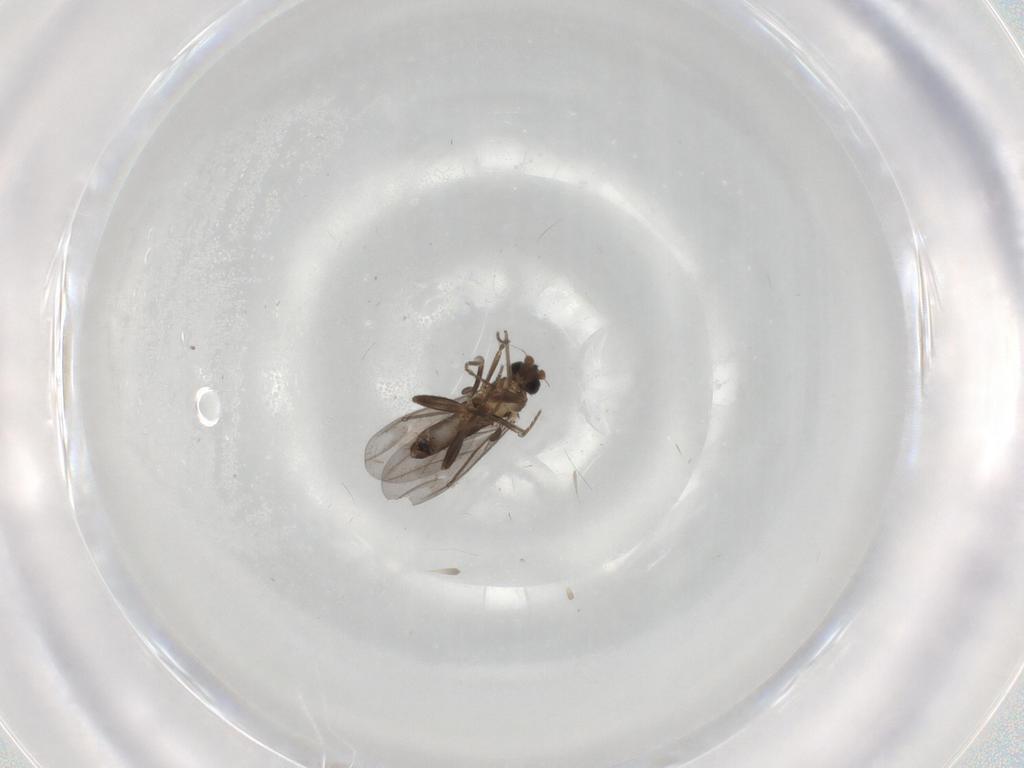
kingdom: Animalia
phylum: Arthropoda
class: Insecta
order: Diptera
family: Phoridae
